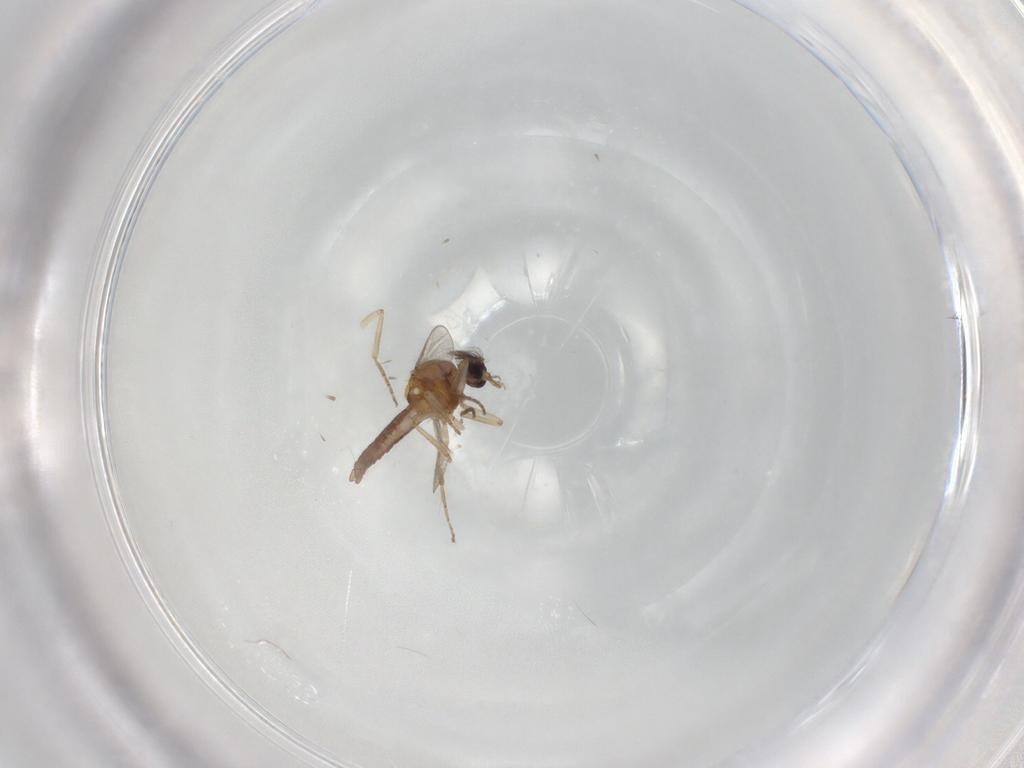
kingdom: Animalia
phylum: Arthropoda
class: Insecta
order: Diptera
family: Ceratopogonidae
